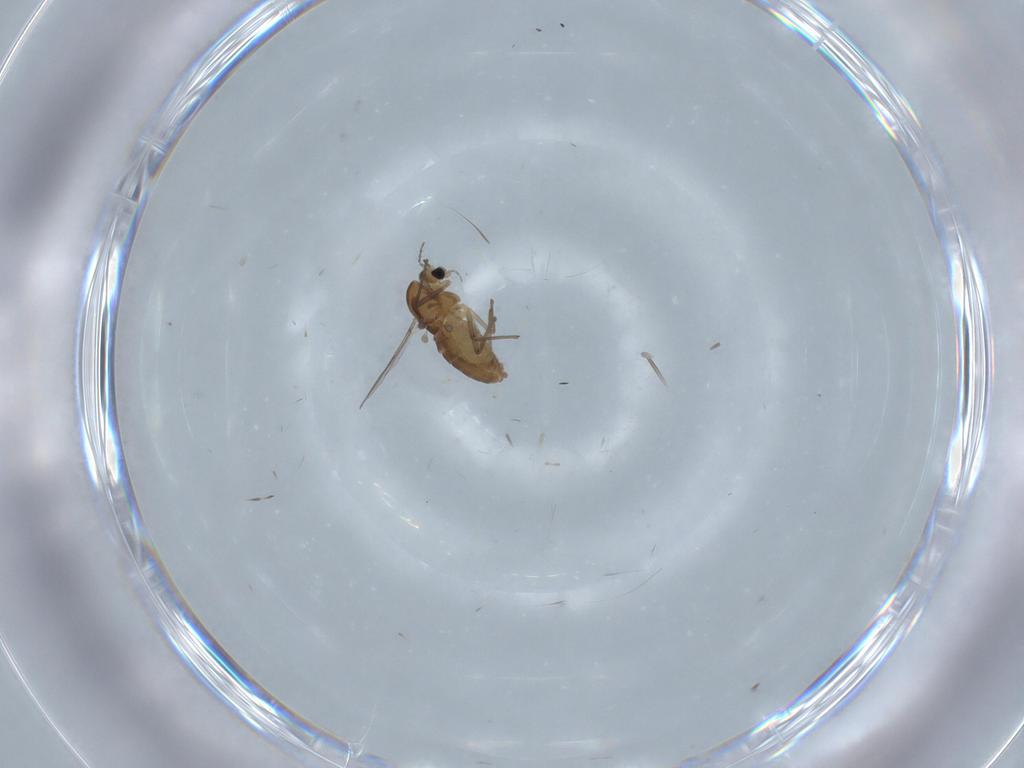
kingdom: Animalia
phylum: Arthropoda
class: Insecta
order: Diptera
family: Chironomidae
